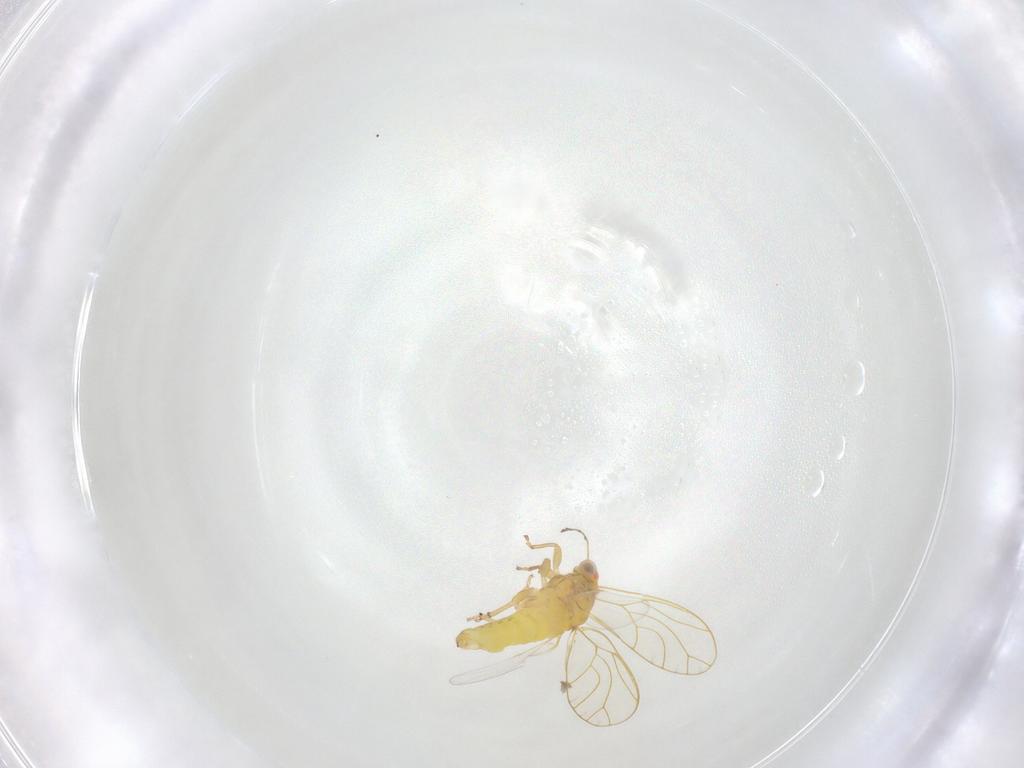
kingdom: Animalia
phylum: Arthropoda
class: Insecta
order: Hemiptera
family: Psylloidea_incertae_sedis
